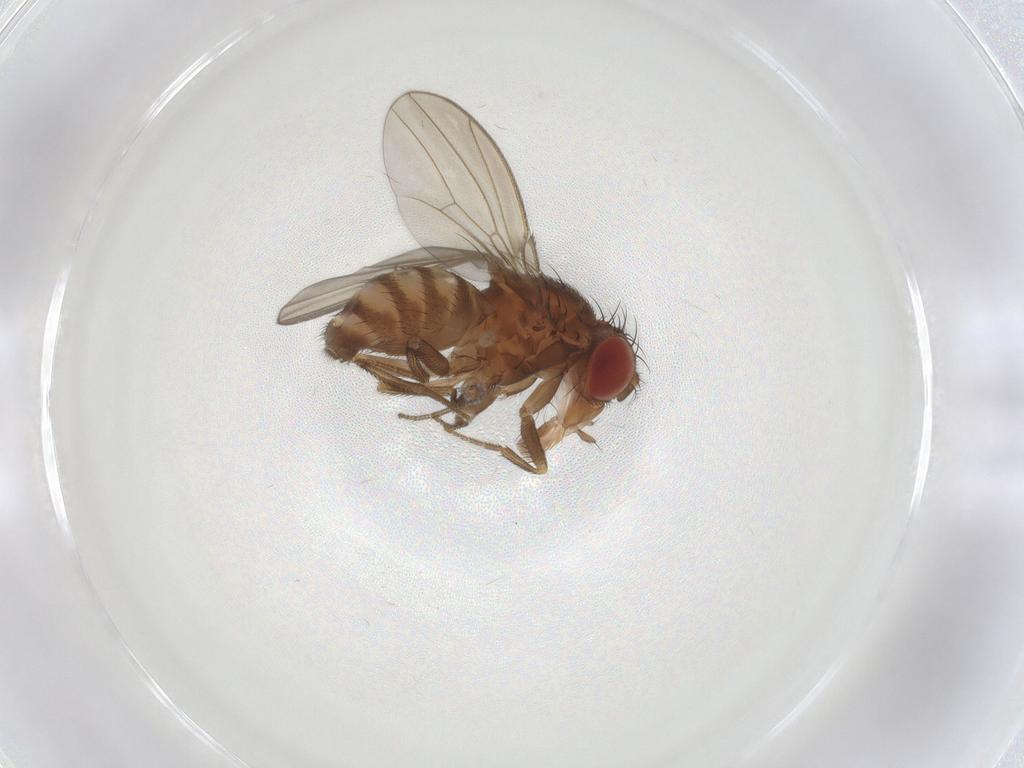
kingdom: Animalia
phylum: Arthropoda
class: Insecta
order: Diptera
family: Drosophilidae
